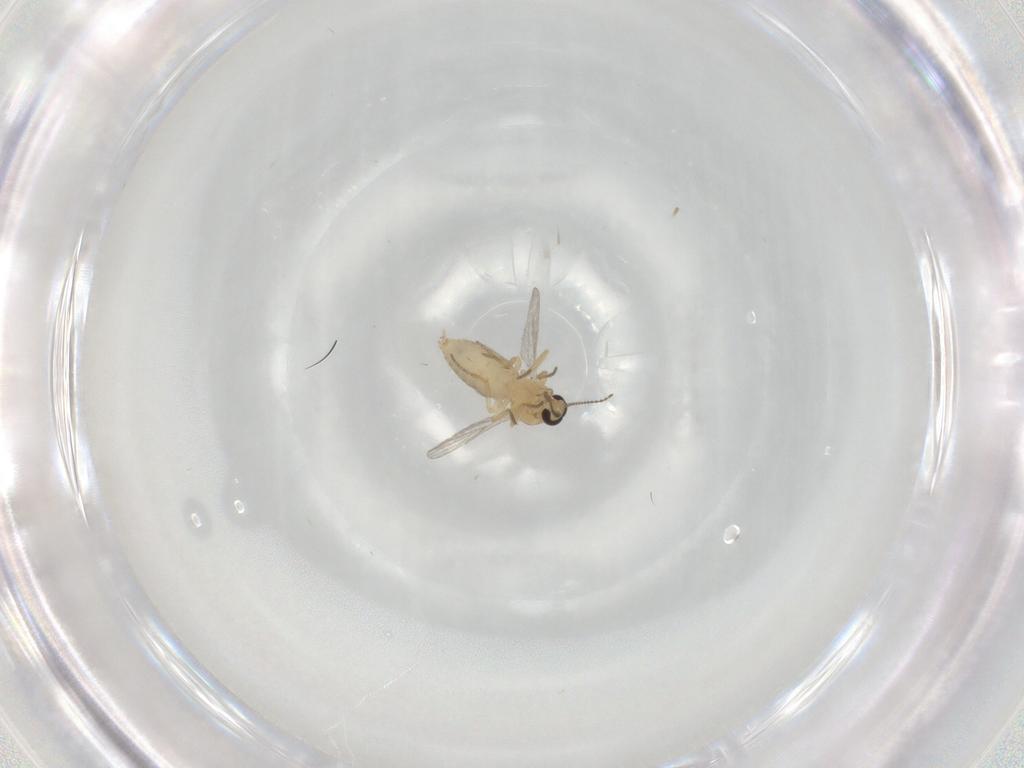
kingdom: Animalia
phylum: Arthropoda
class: Insecta
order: Diptera
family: Ceratopogonidae
